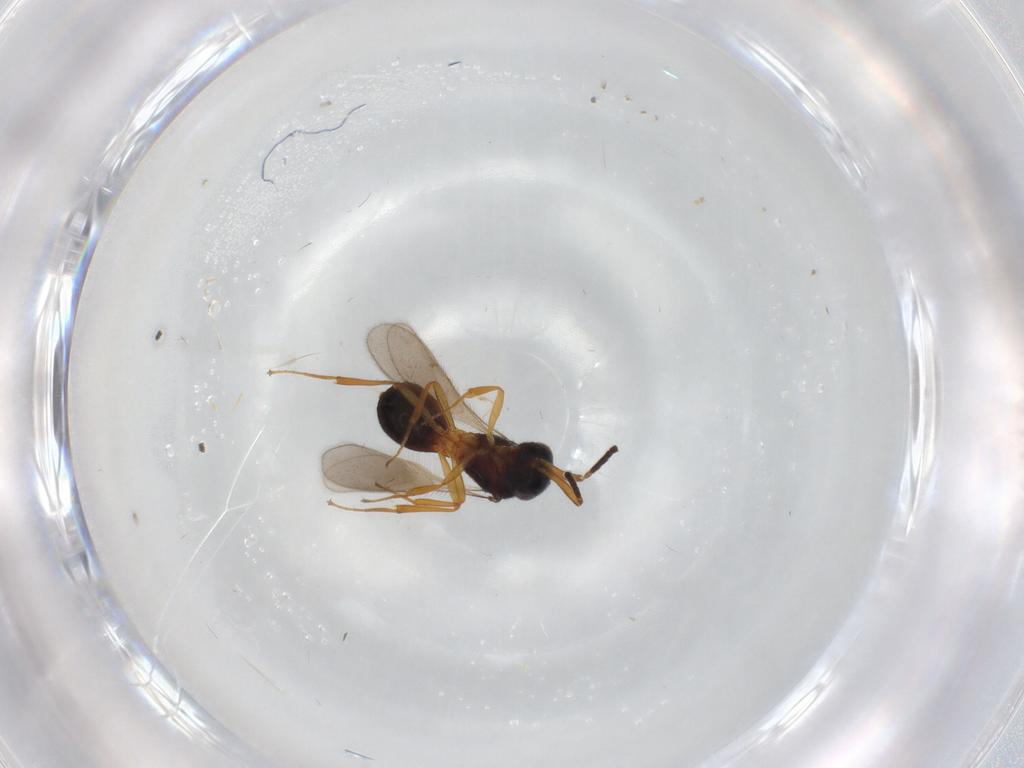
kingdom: Animalia
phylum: Arthropoda
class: Insecta
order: Hymenoptera
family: Scelionidae
